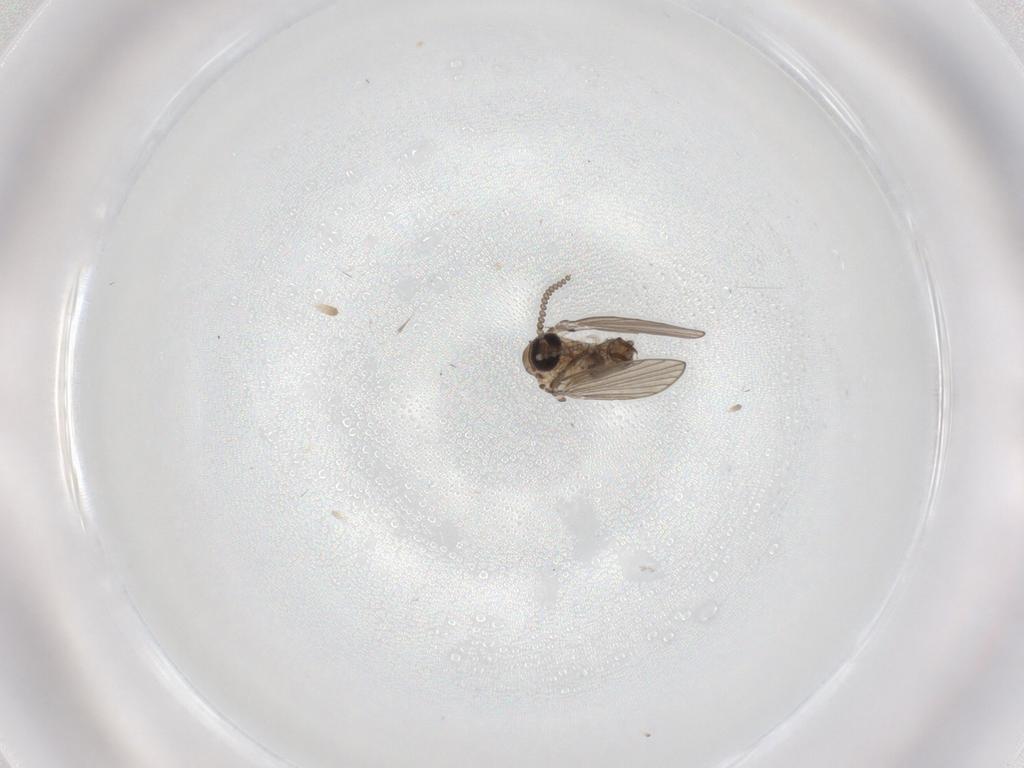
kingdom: Animalia
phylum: Arthropoda
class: Insecta
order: Diptera
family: Psychodidae
